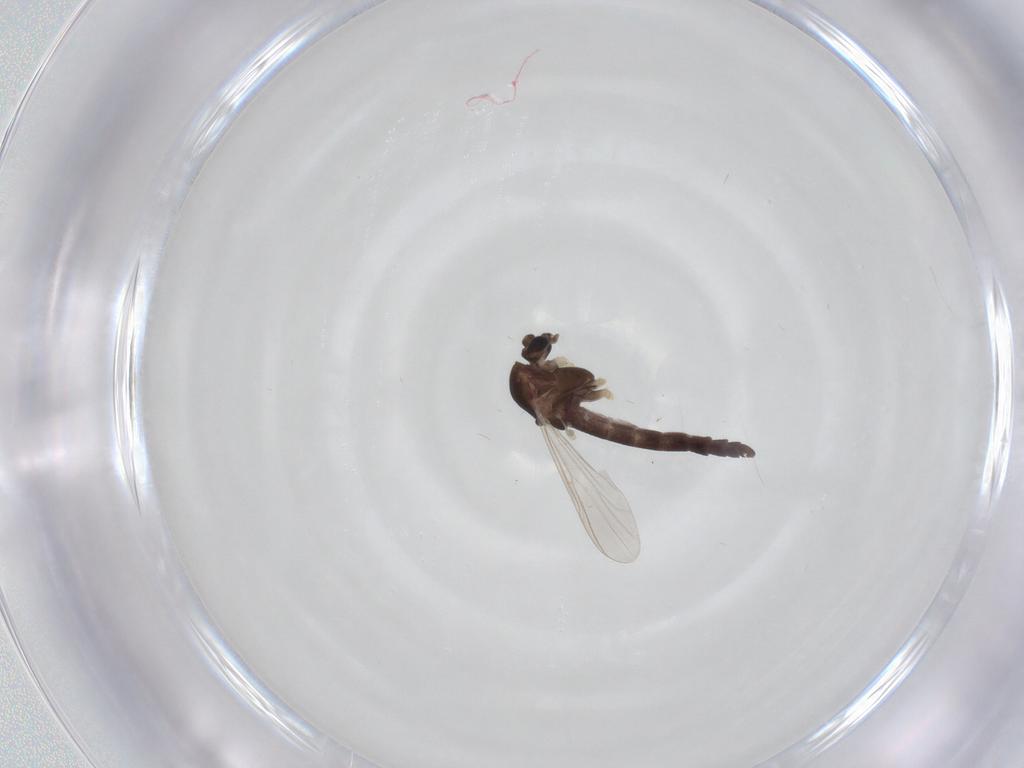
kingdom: Animalia
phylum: Arthropoda
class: Insecta
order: Diptera
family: Chironomidae
